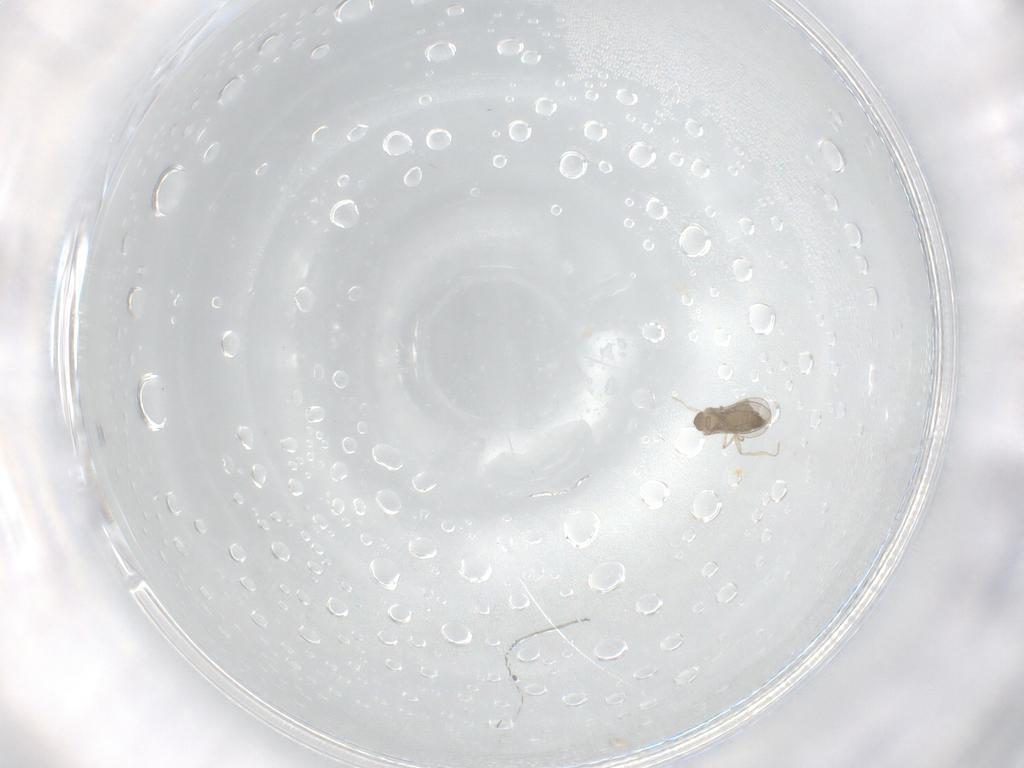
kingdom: Animalia
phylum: Arthropoda
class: Insecta
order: Diptera
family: Cecidomyiidae
